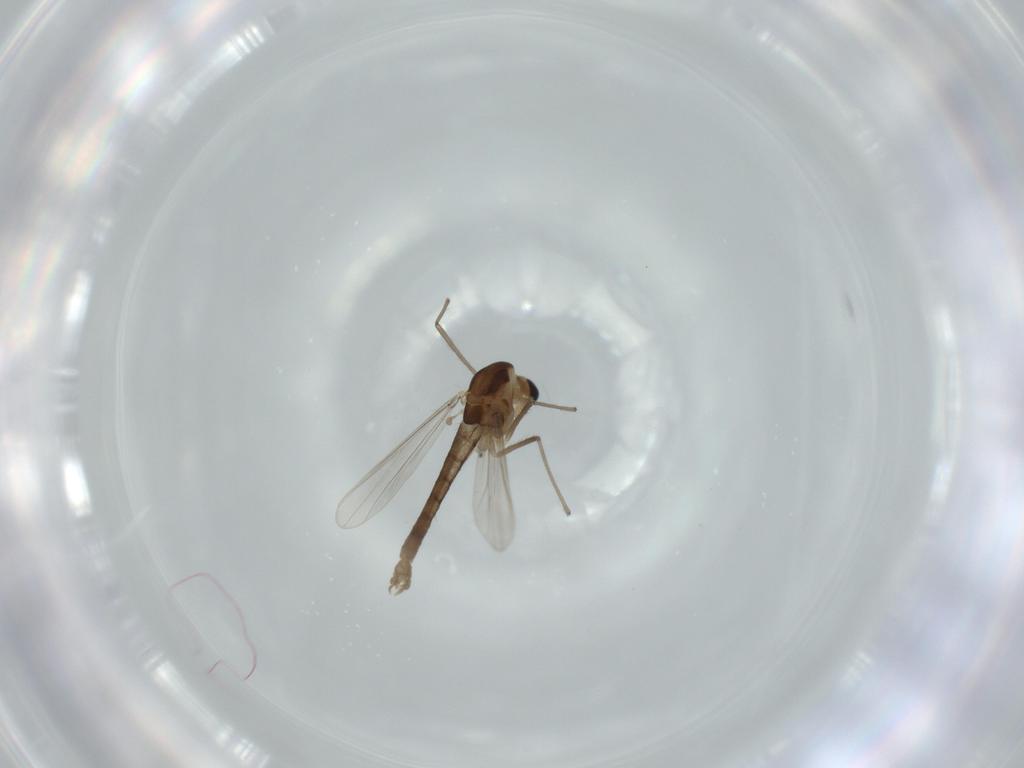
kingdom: Animalia
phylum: Arthropoda
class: Insecta
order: Diptera
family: Chironomidae
